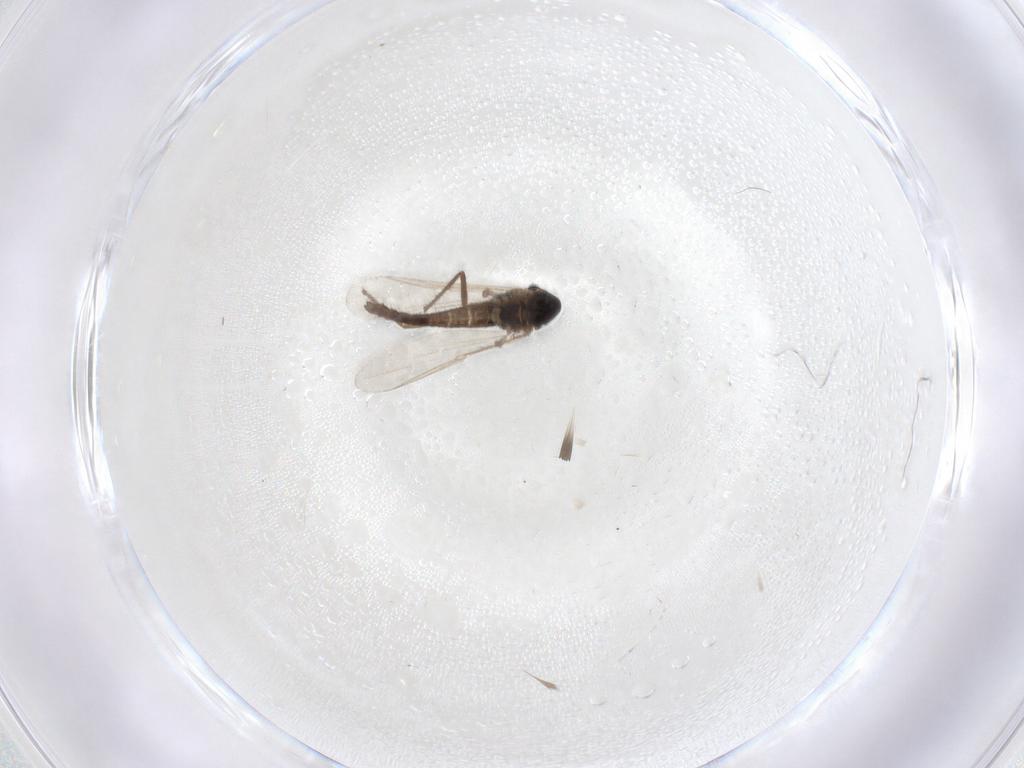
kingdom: Animalia
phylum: Arthropoda
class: Insecta
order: Diptera
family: Chironomidae
